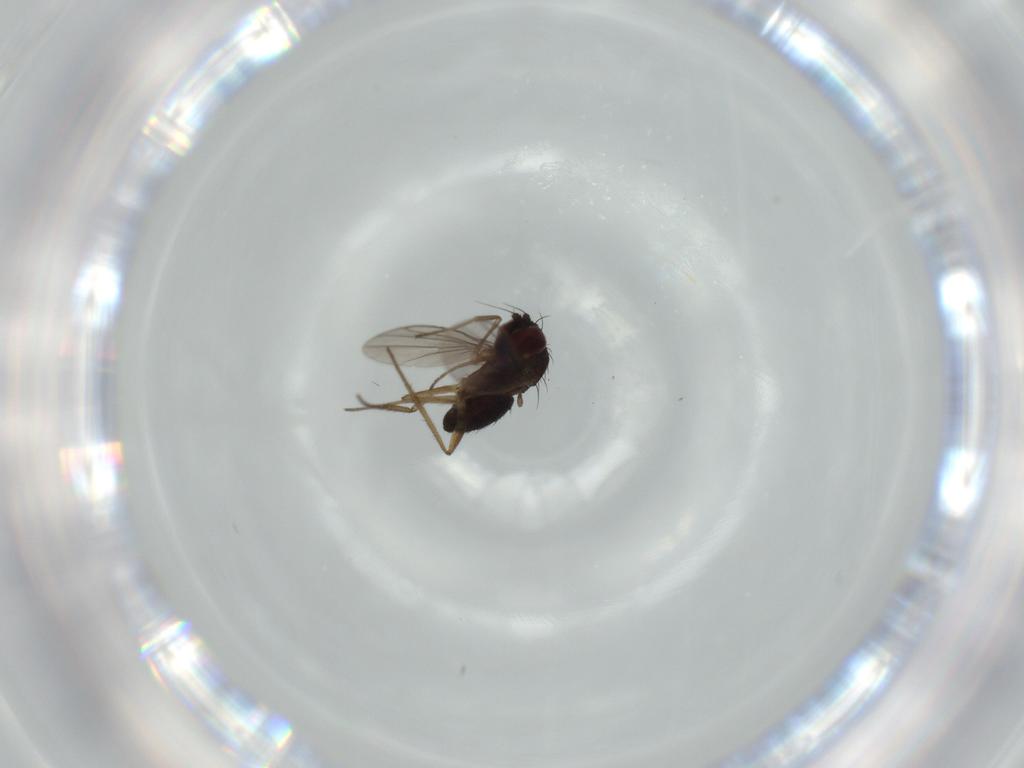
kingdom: Animalia
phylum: Arthropoda
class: Insecta
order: Diptera
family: Dolichopodidae
